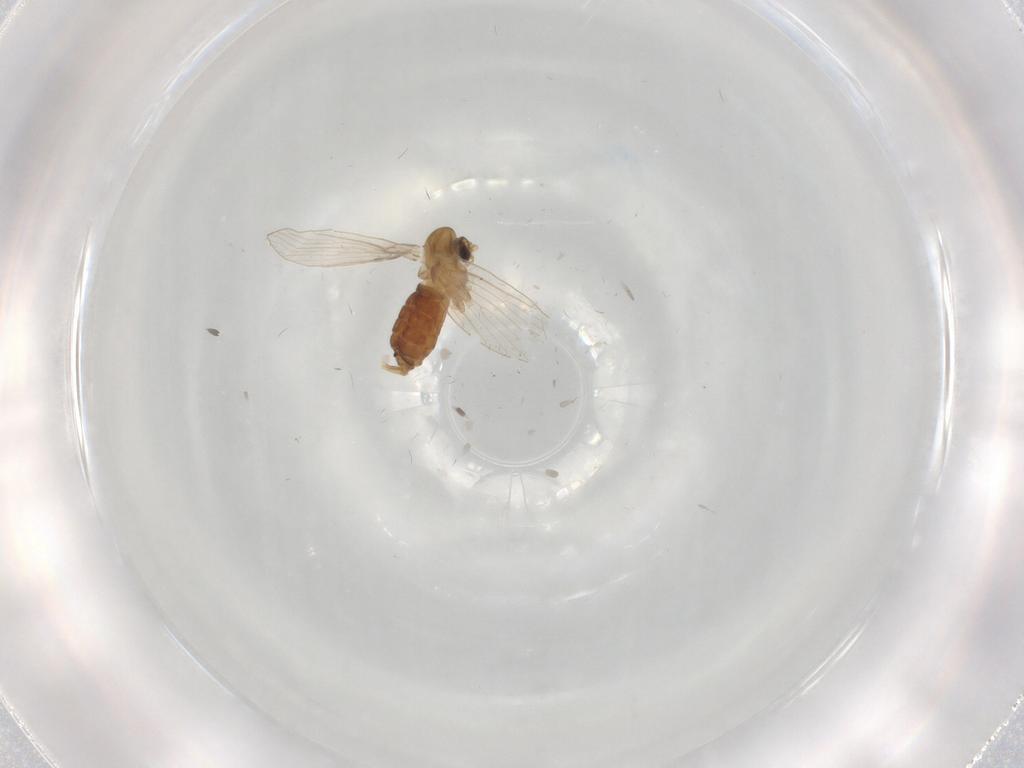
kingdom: Animalia
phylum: Arthropoda
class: Insecta
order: Diptera
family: Psychodidae
